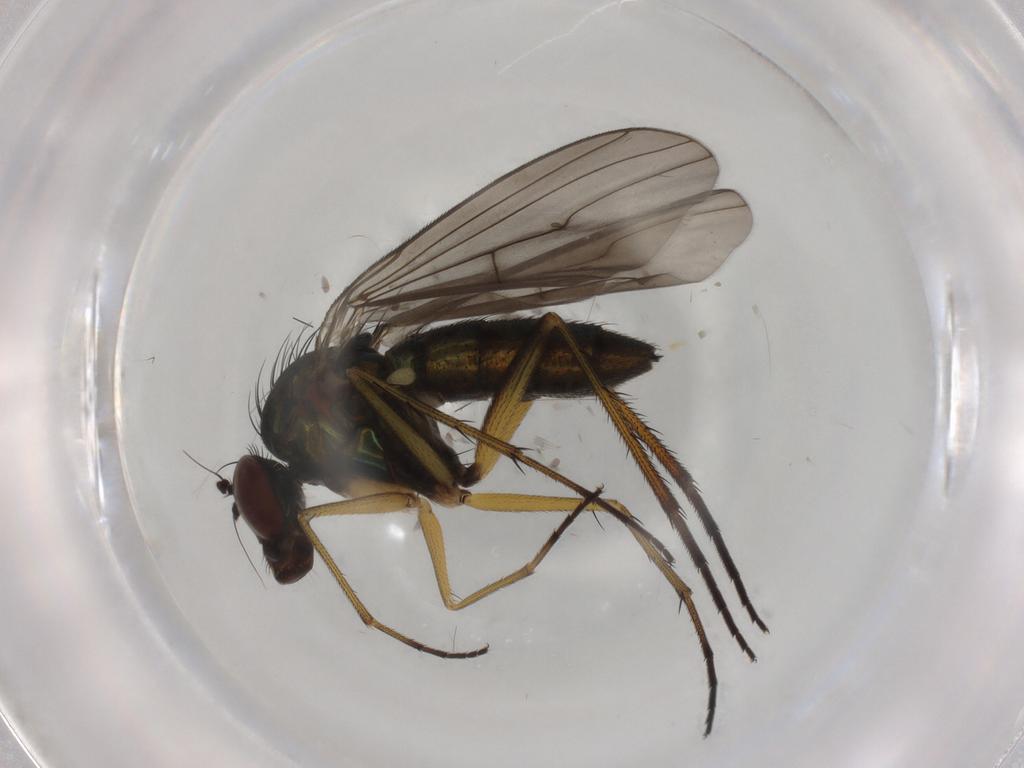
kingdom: Animalia
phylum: Arthropoda
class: Insecta
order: Diptera
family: Dolichopodidae
